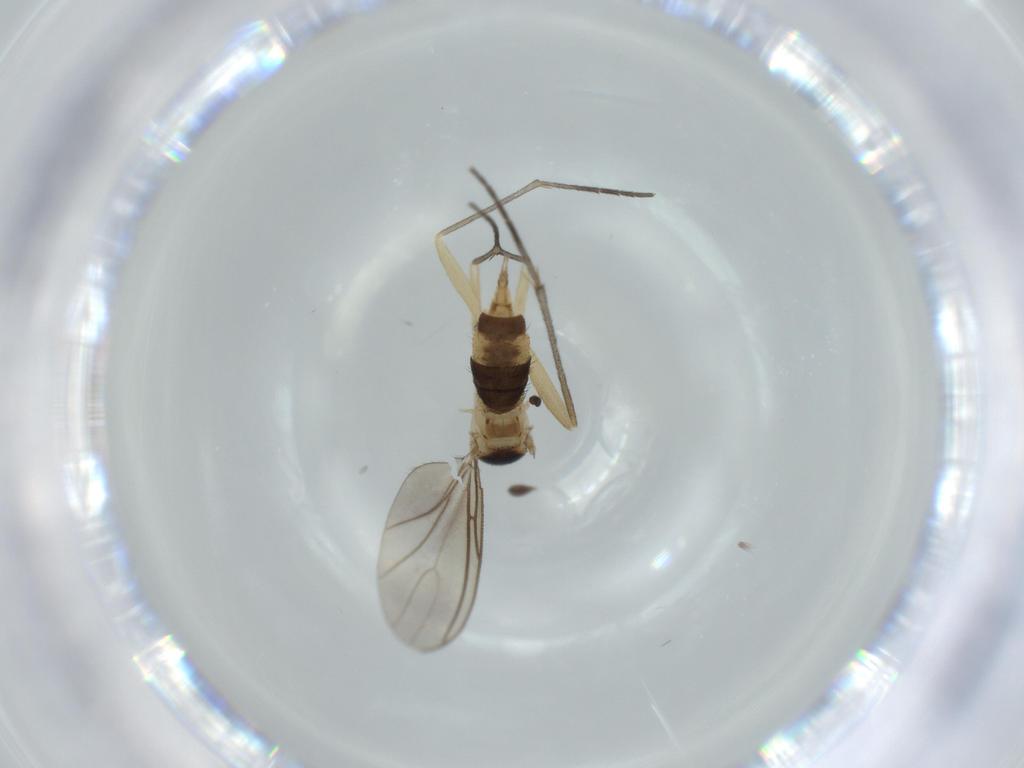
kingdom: Animalia
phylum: Arthropoda
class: Insecta
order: Diptera
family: Sciaridae
